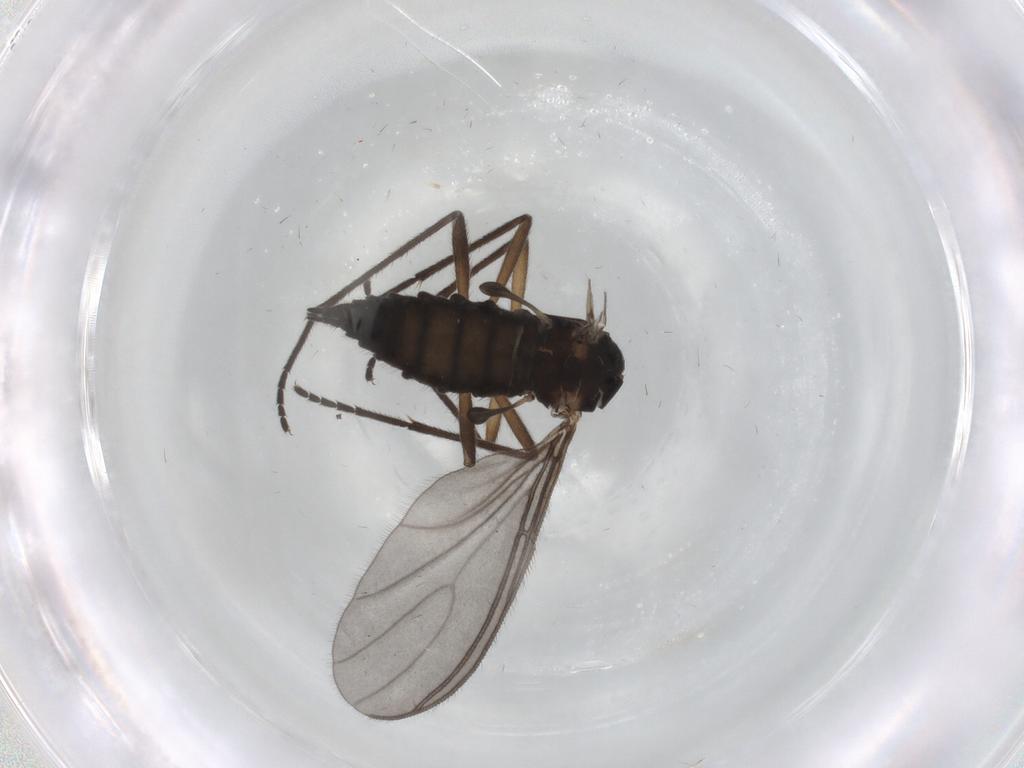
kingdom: Animalia
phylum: Arthropoda
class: Insecta
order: Diptera
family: Sciaridae
